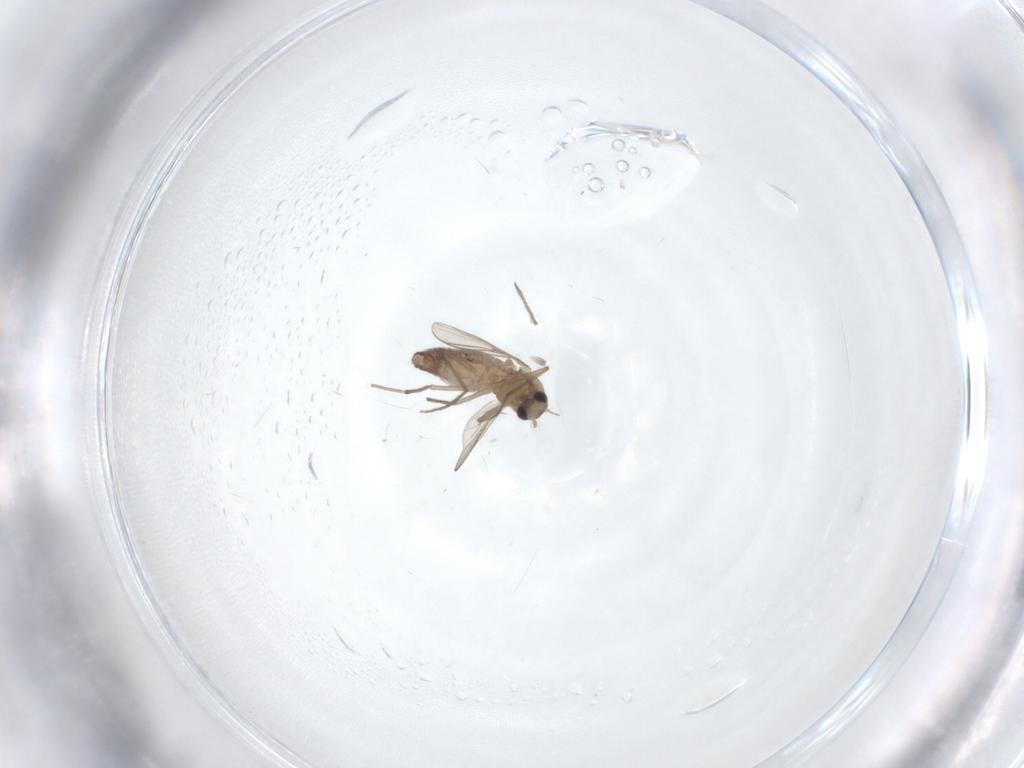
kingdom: Animalia
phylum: Arthropoda
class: Insecta
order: Diptera
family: Chironomidae
